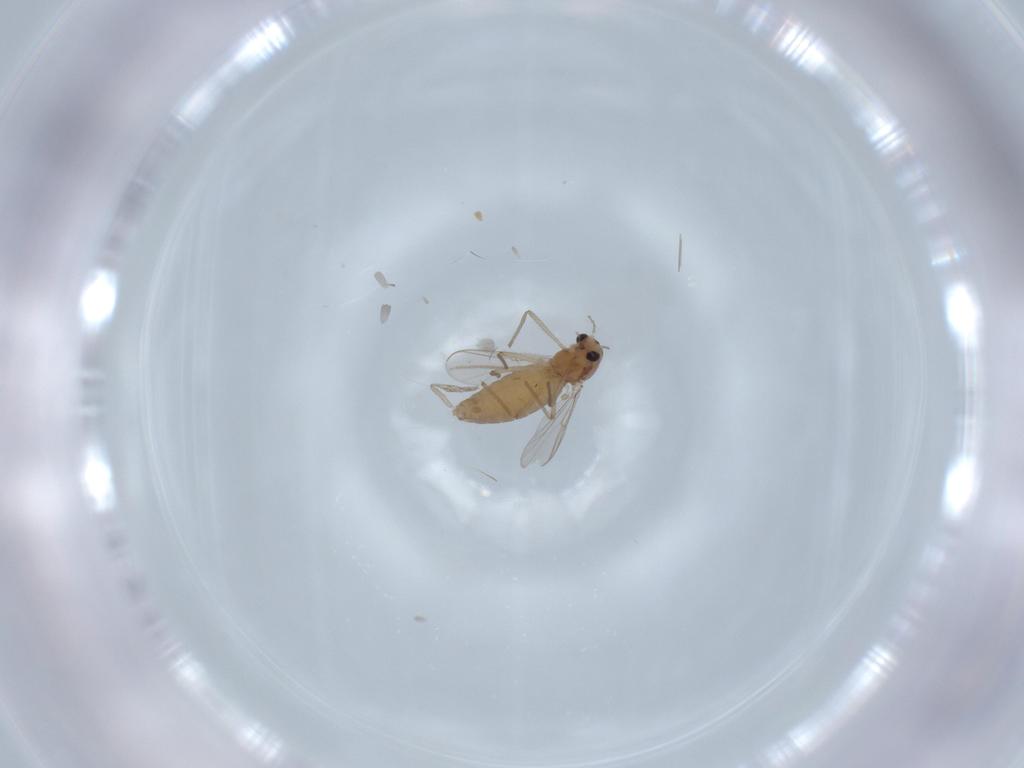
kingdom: Animalia
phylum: Arthropoda
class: Insecta
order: Diptera
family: Chironomidae
